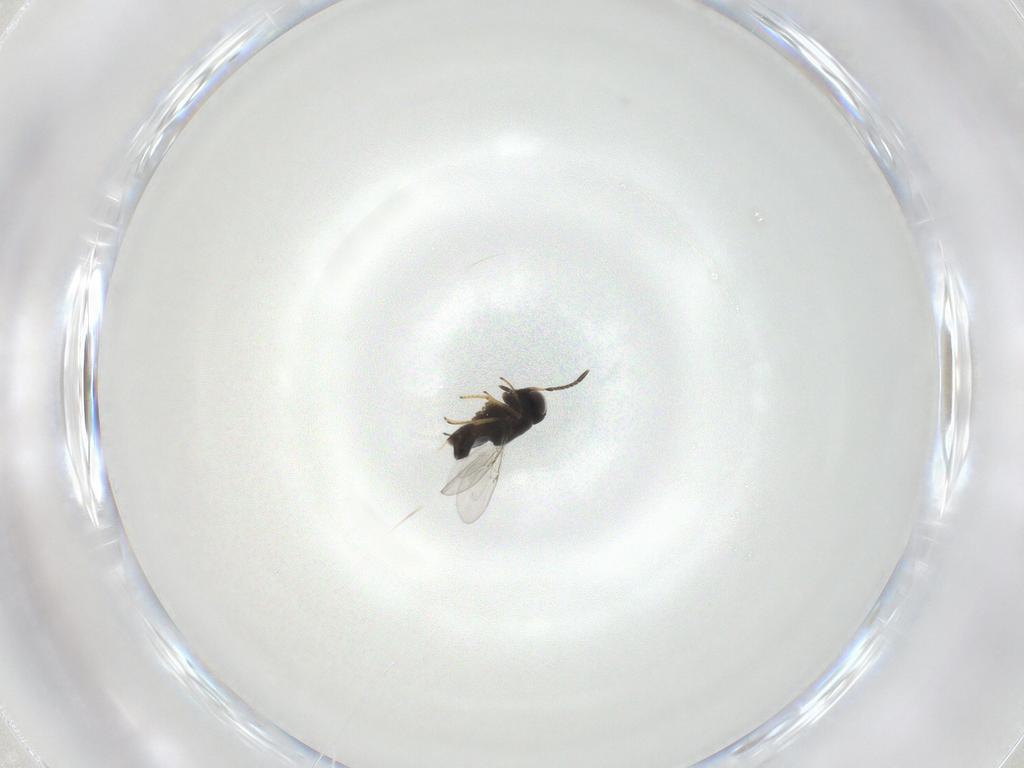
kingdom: Animalia
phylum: Arthropoda
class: Insecta
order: Diptera
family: Cecidomyiidae
